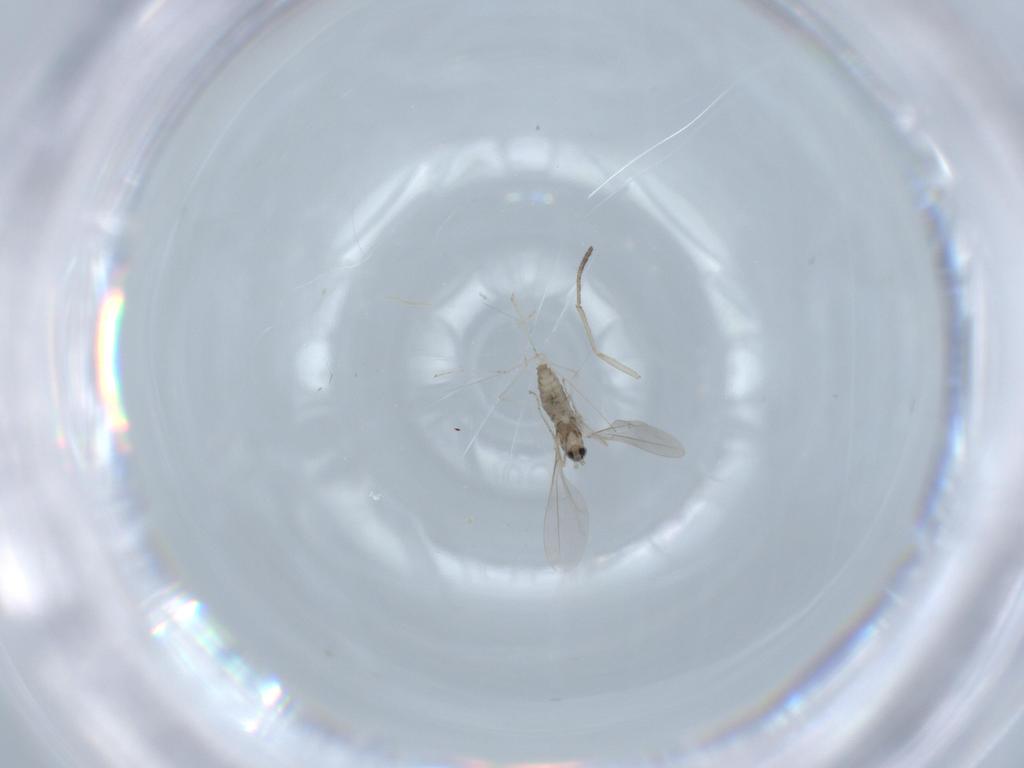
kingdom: Animalia
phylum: Arthropoda
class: Insecta
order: Diptera
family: Cecidomyiidae
